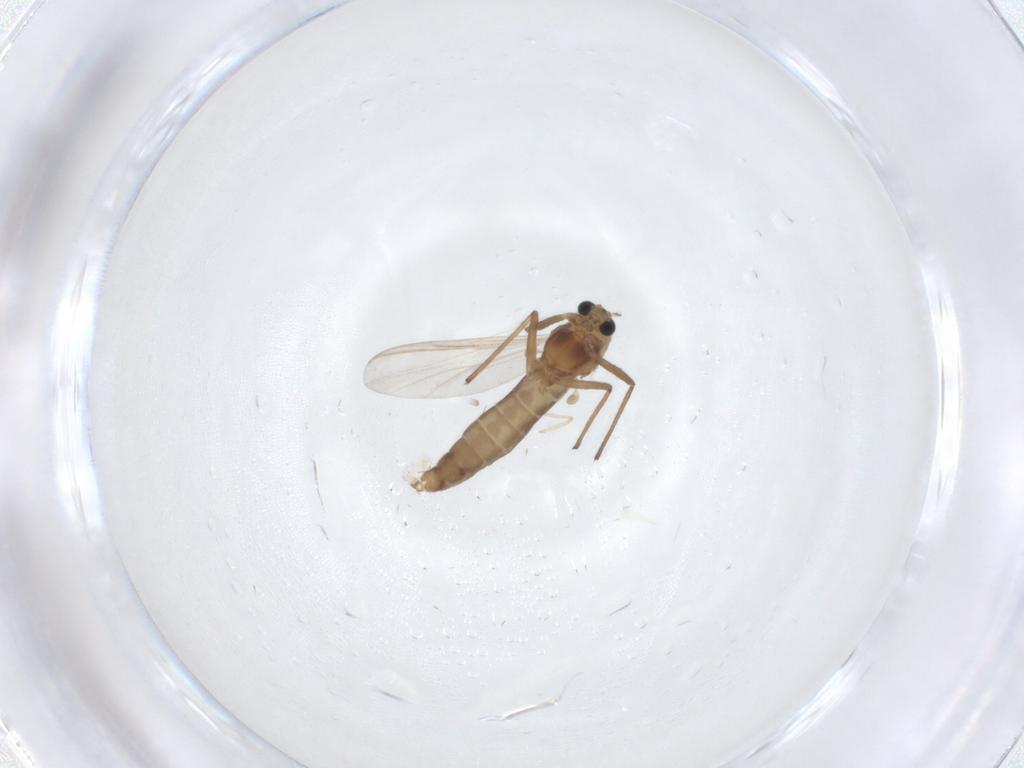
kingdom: Animalia
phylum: Arthropoda
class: Insecta
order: Diptera
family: Chironomidae
